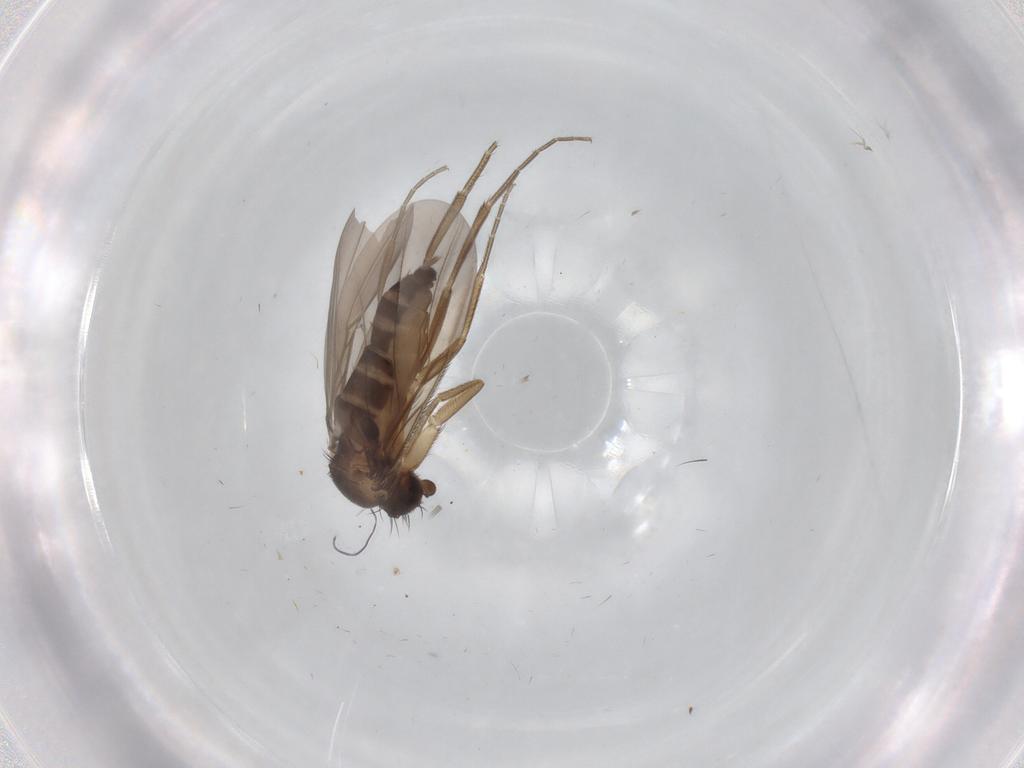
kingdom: Animalia
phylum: Arthropoda
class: Insecta
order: Diptera
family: Phoridae
